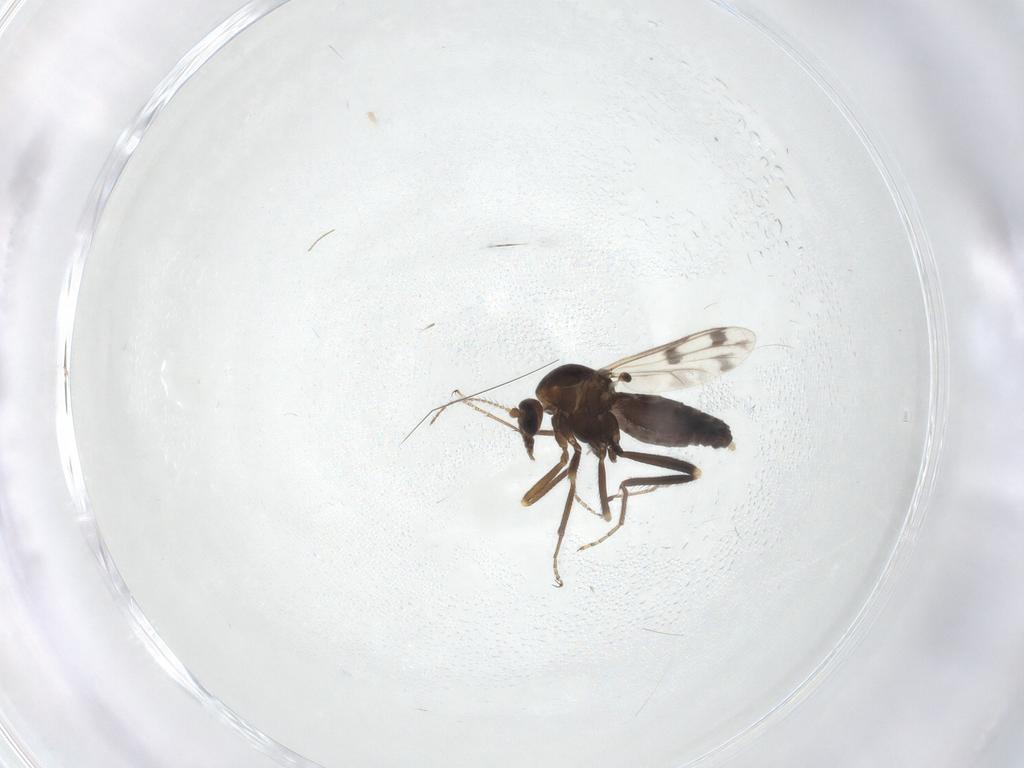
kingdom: Animalia
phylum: Arthropoda
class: Insecta
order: Diptera
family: Ceratopogonidae
